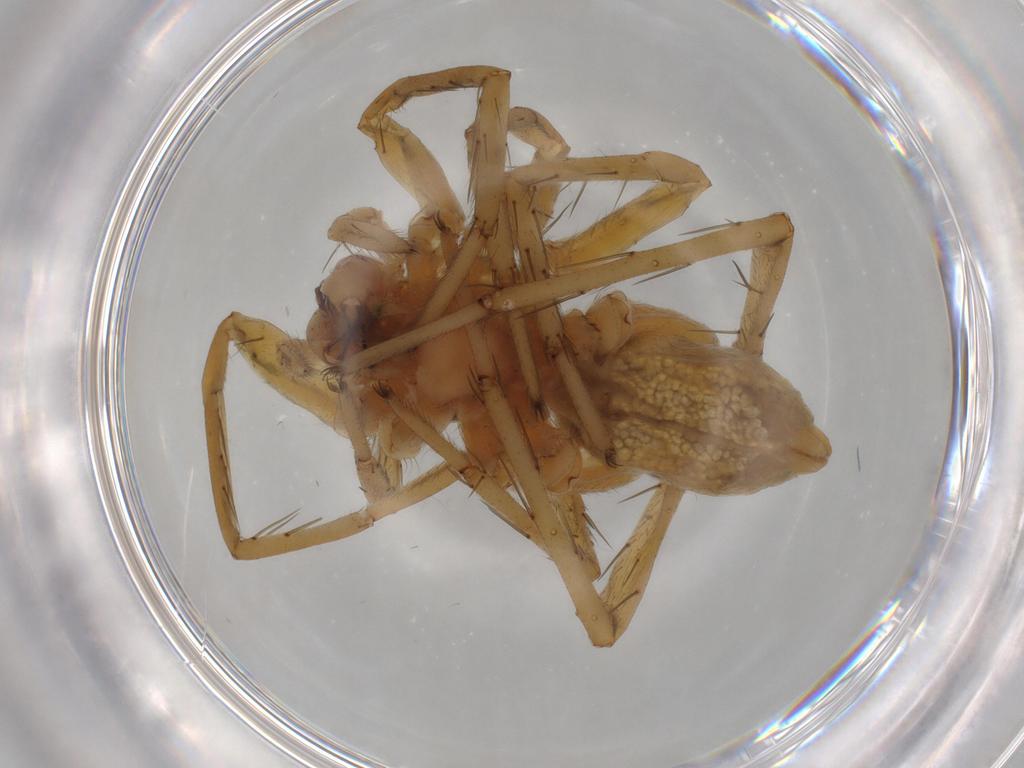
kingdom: Animalia
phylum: Arthropoda
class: Arachnida
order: Araneae
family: Lycosidae
